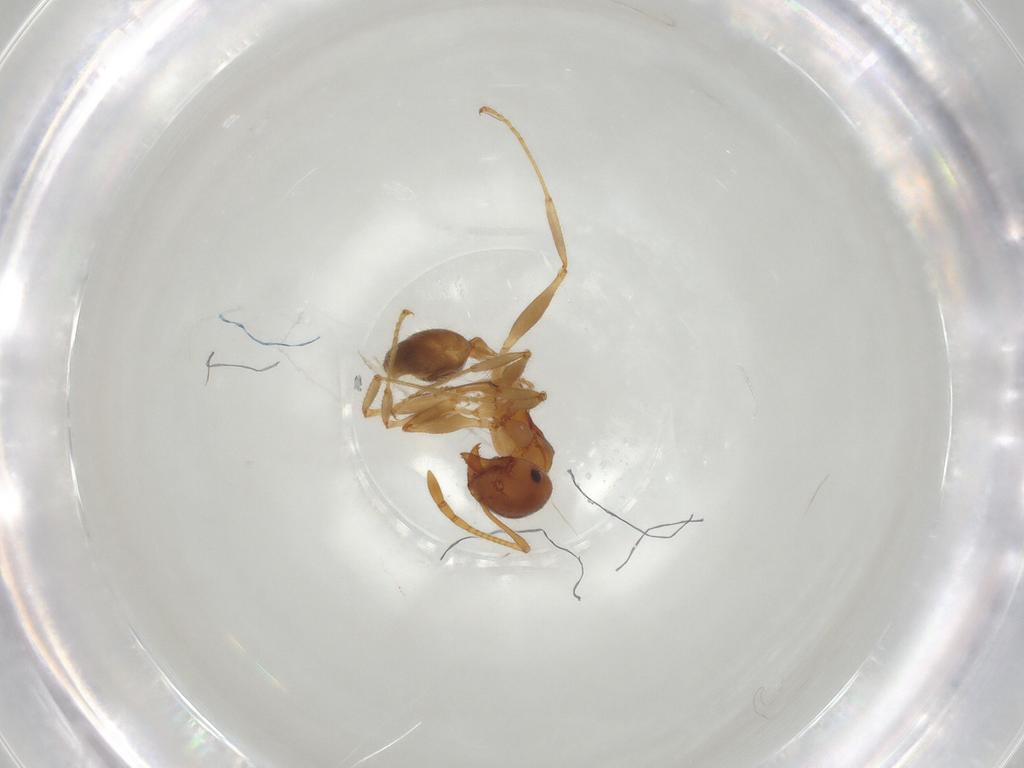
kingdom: Animalia
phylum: Arthropoda
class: Insecta
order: Hymenoptera
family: Formicidae
